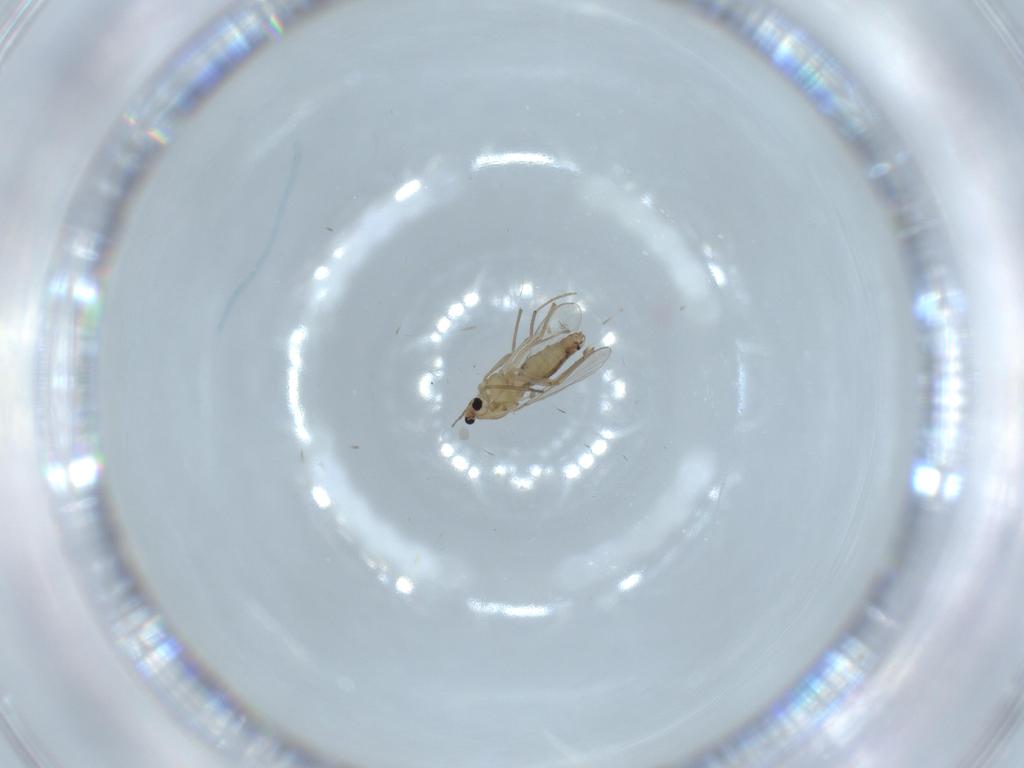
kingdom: Animalia
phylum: Arthropoda
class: Insecta
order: Diptera
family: Chironomidae
